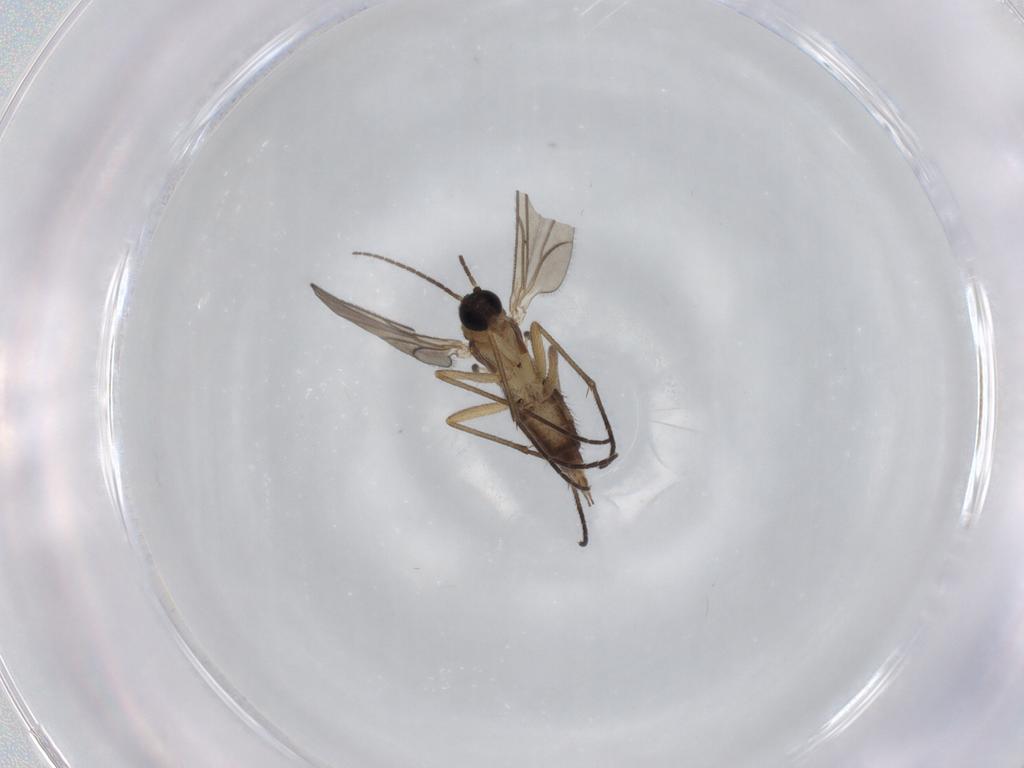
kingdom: Animalia
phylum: Arthropoda
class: Insecta
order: Diptera
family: Sciaridae
